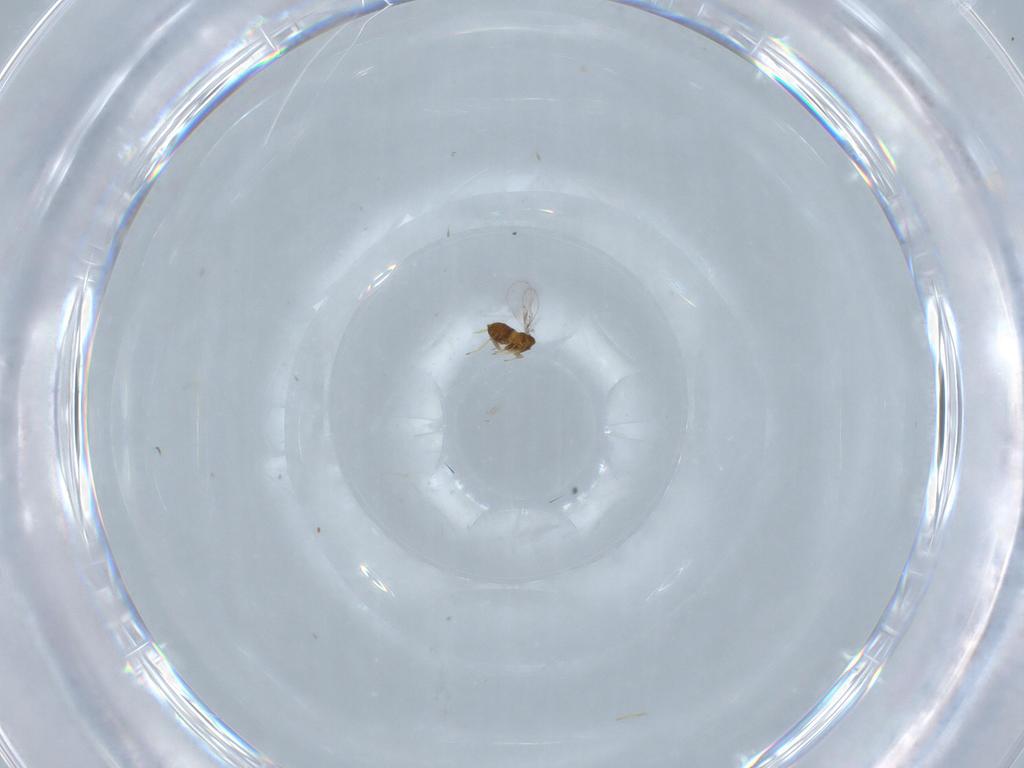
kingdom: Animalia
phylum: Arthropoda
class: Insecta
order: Hymenoptera
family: Trichogrammatidae
